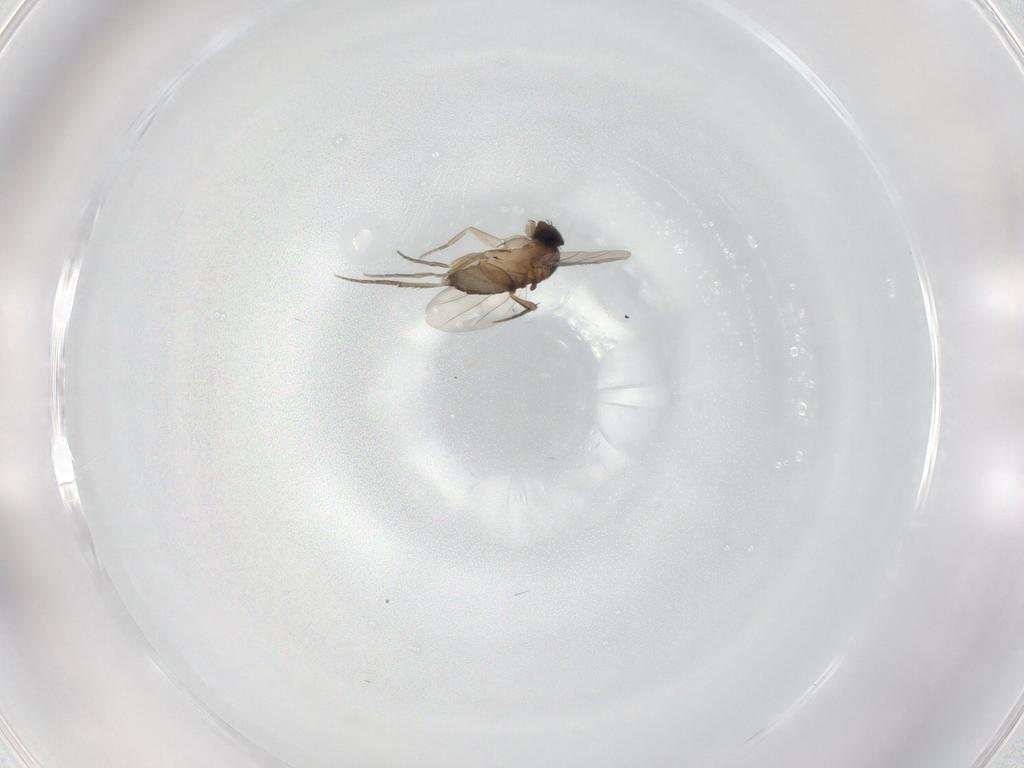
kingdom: Animalia
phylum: Arthropoda
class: Insecta
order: Diptera
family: Phoridae
